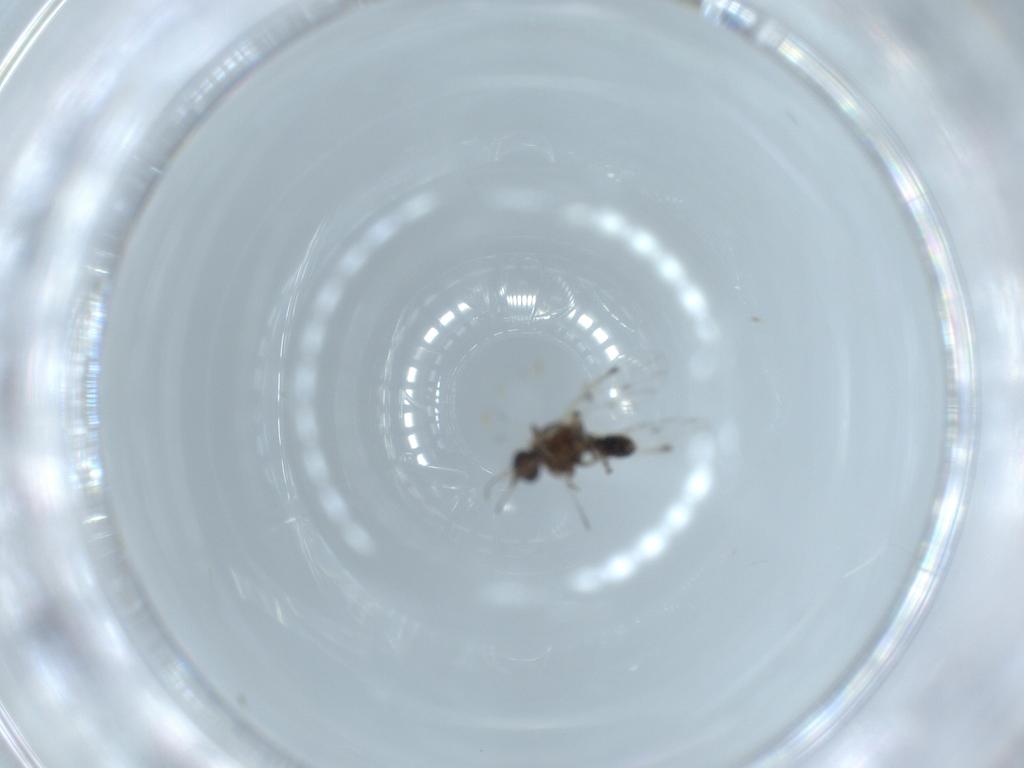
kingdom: Animalia
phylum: Arthropoda
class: Insecta
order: Diptera
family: Ceratopogonidae
